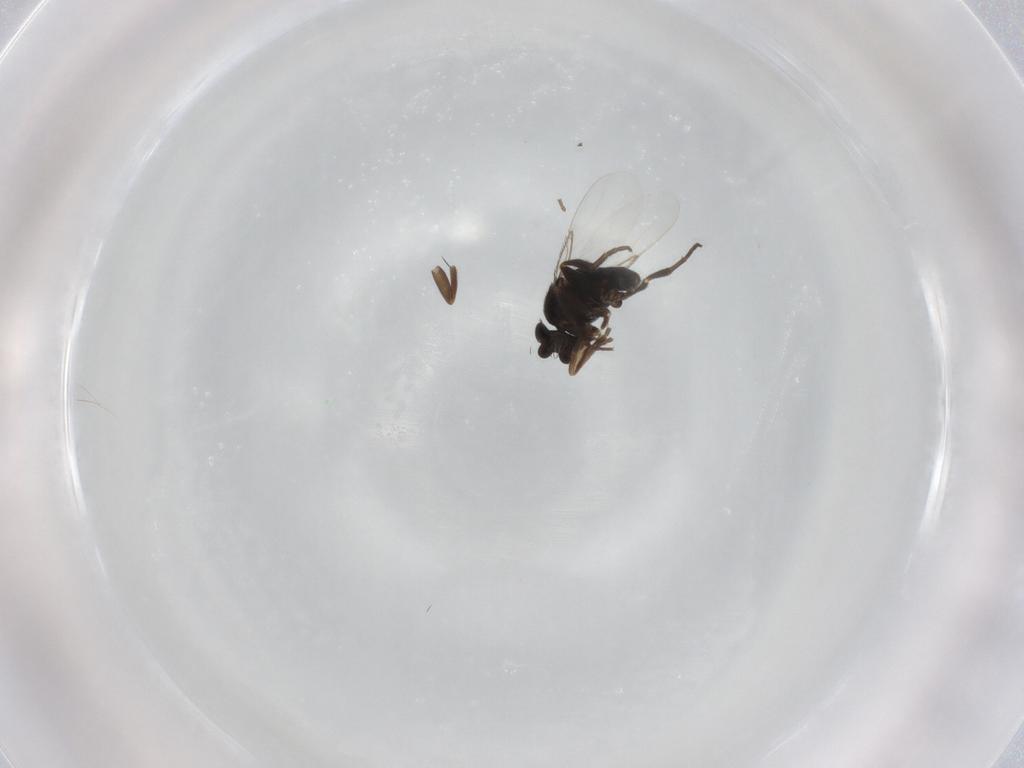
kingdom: Animalia
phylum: Arthropoda
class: Insecta
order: Diptera
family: Phoridae
